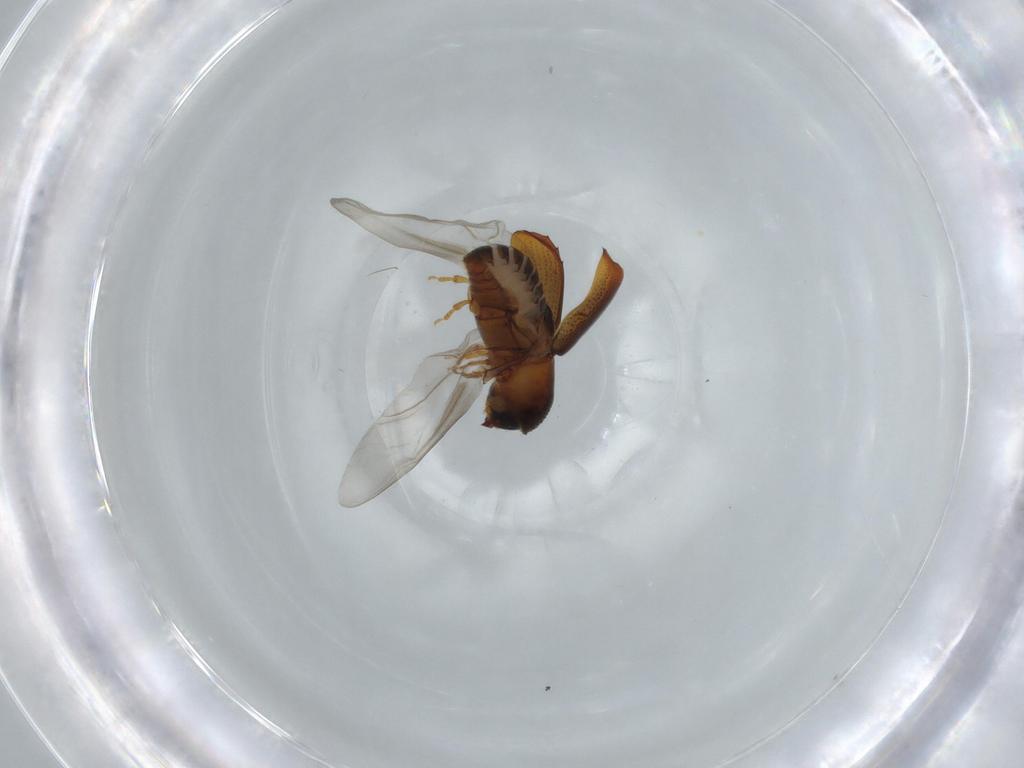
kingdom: Animalia
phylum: Arthropoda
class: Insecta
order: Coleoptera
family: Curculionidae
